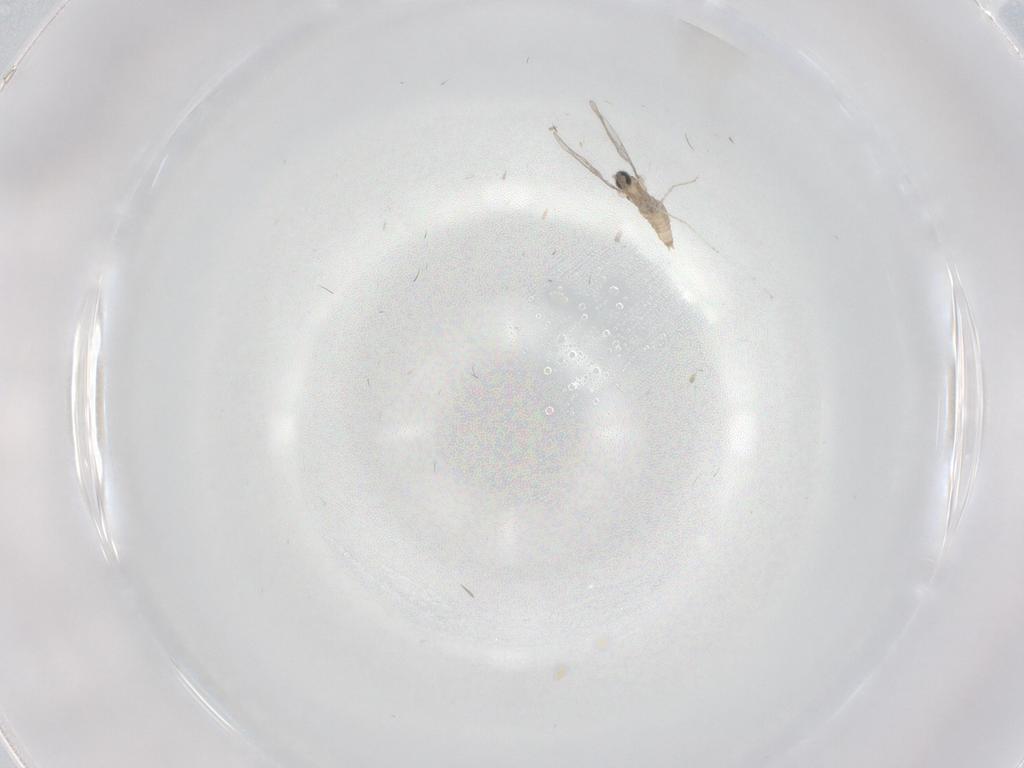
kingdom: Animalia
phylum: Arthropoda
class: Insecta
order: Diptera
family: Cecidomyiidae
